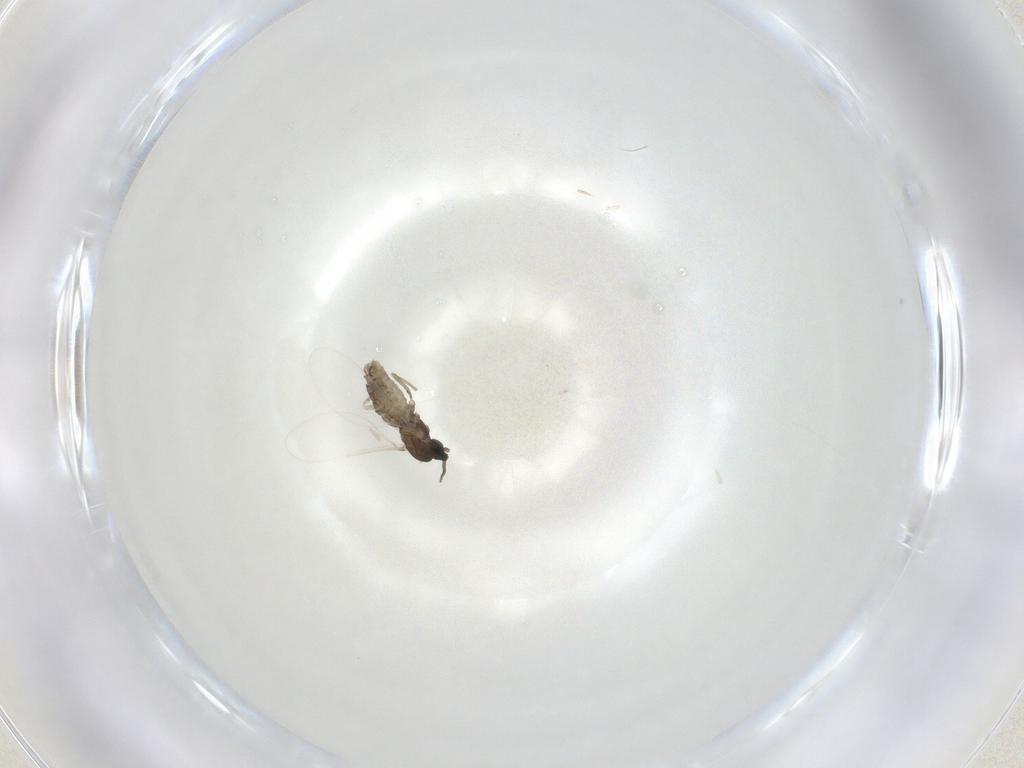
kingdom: Animalia
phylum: Arthropoda
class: Insecta
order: Diptera
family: Cecidomyiidae
